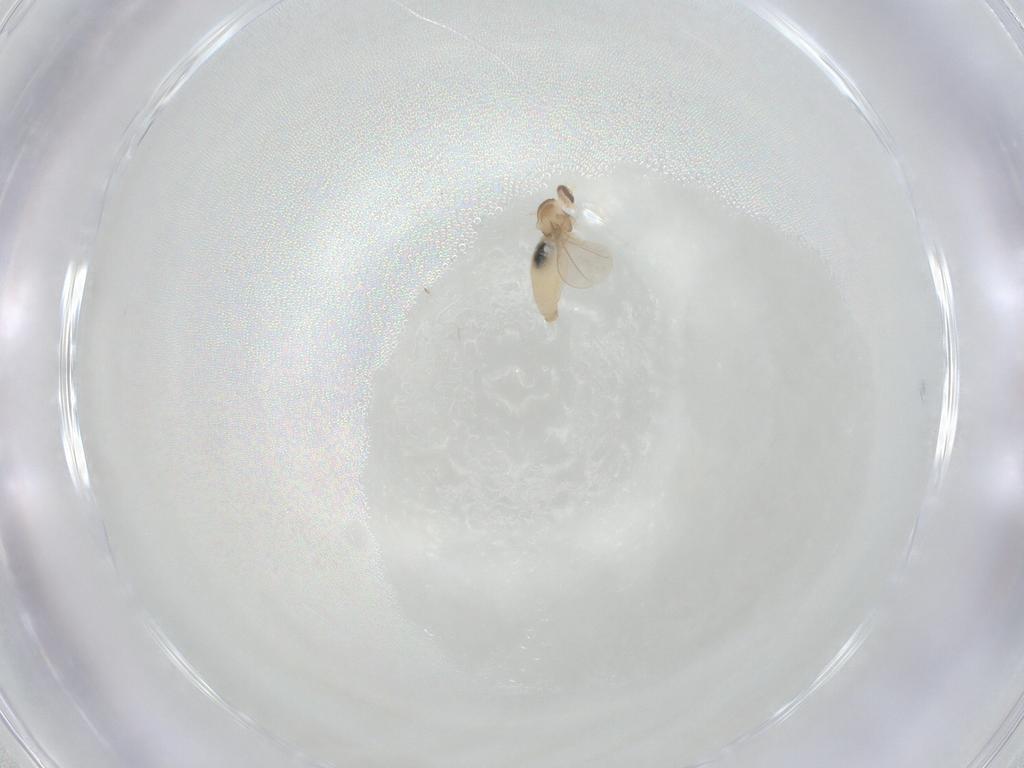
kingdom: Animalia
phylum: Arthropoda
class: Insecta
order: Diptera
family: Cecidomyiidae
